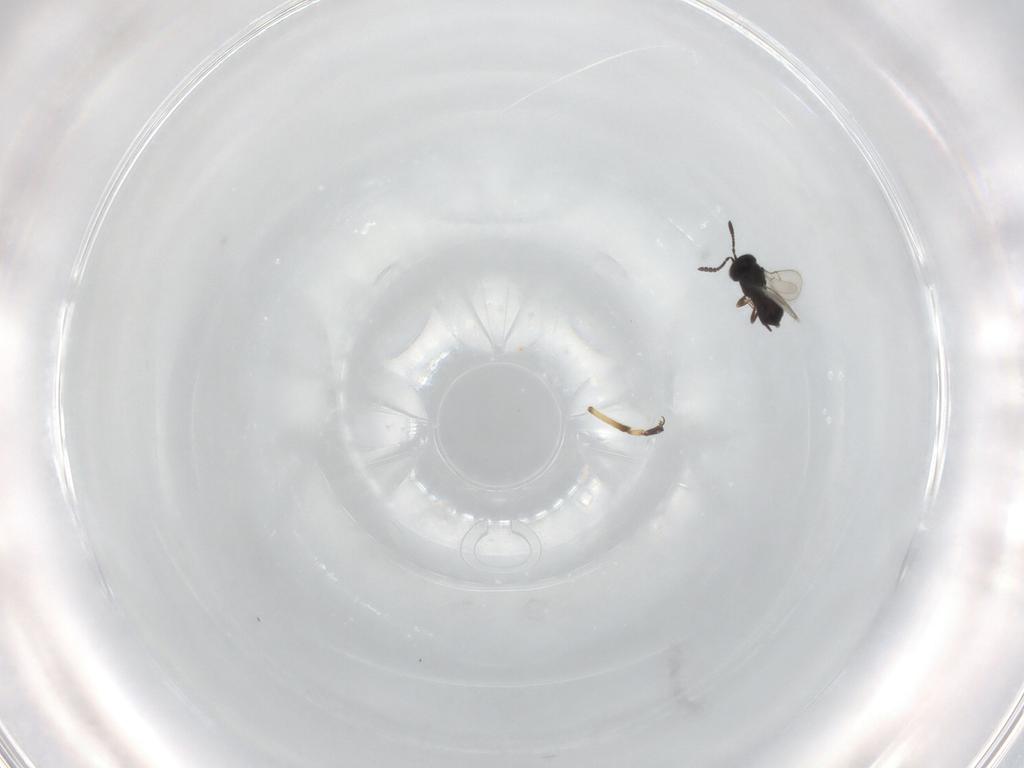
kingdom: Animalia
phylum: Arthropoda
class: Insecta
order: Hymenoptera
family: Scelionidae
